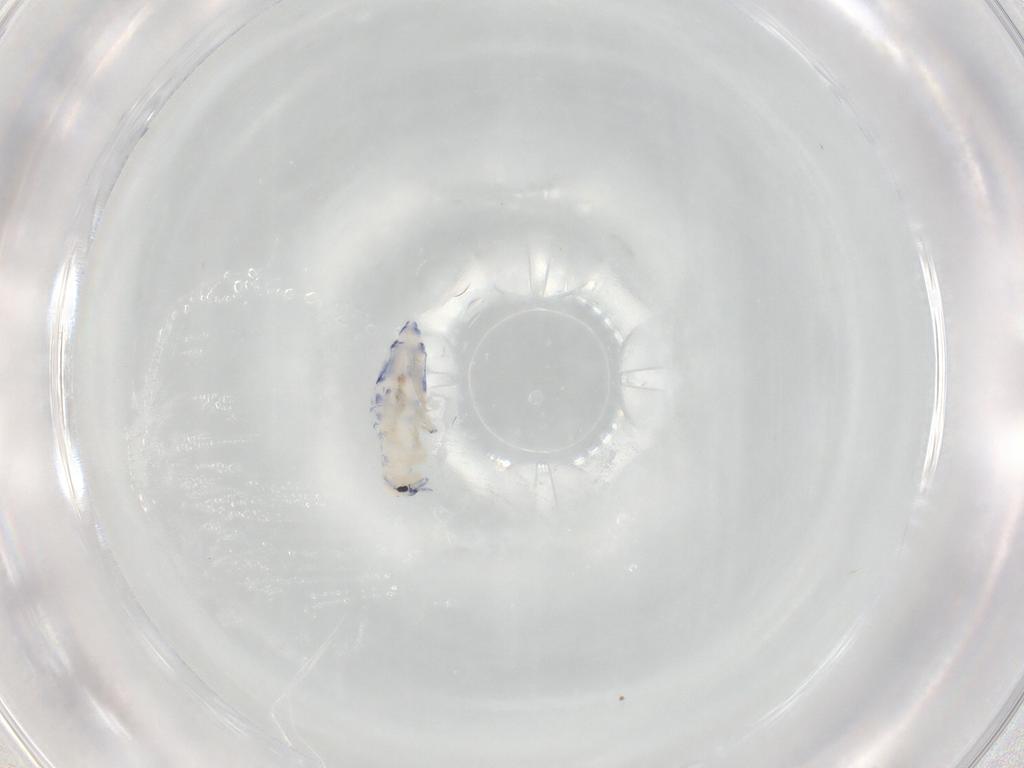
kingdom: Animalia
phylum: Arthropoda
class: Collembola
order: Entomobryomorpha
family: Entomobryidae
